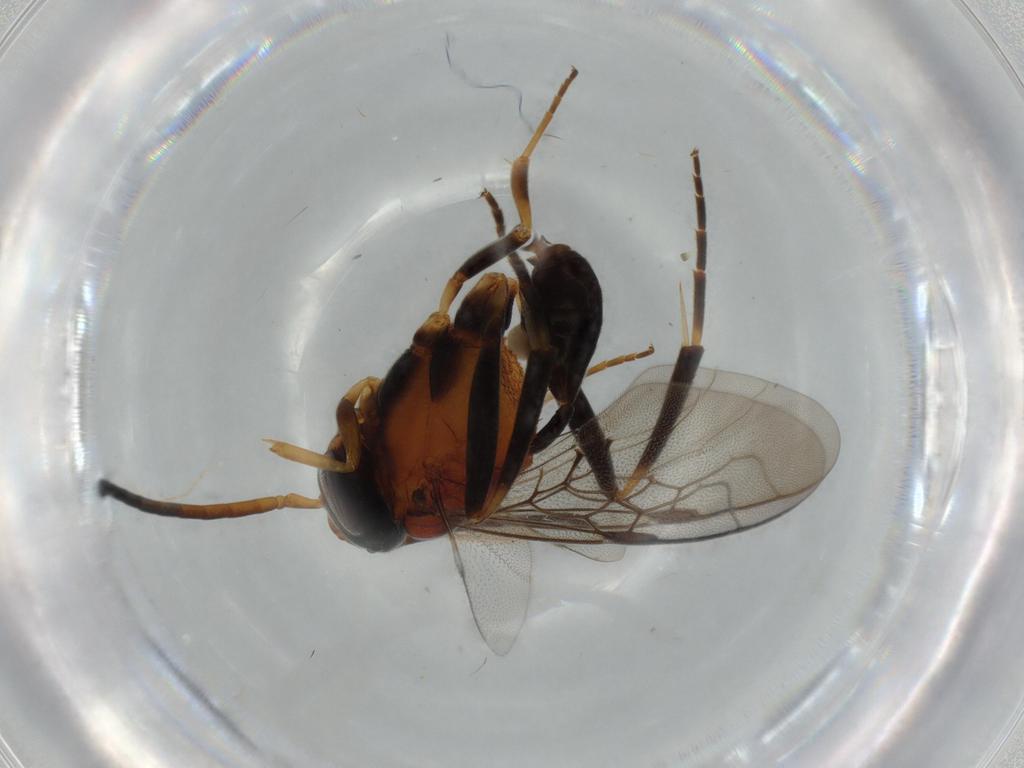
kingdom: Animalia
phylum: Arthropoda
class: Insecta
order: Hymenoptera
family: Evaniidae
